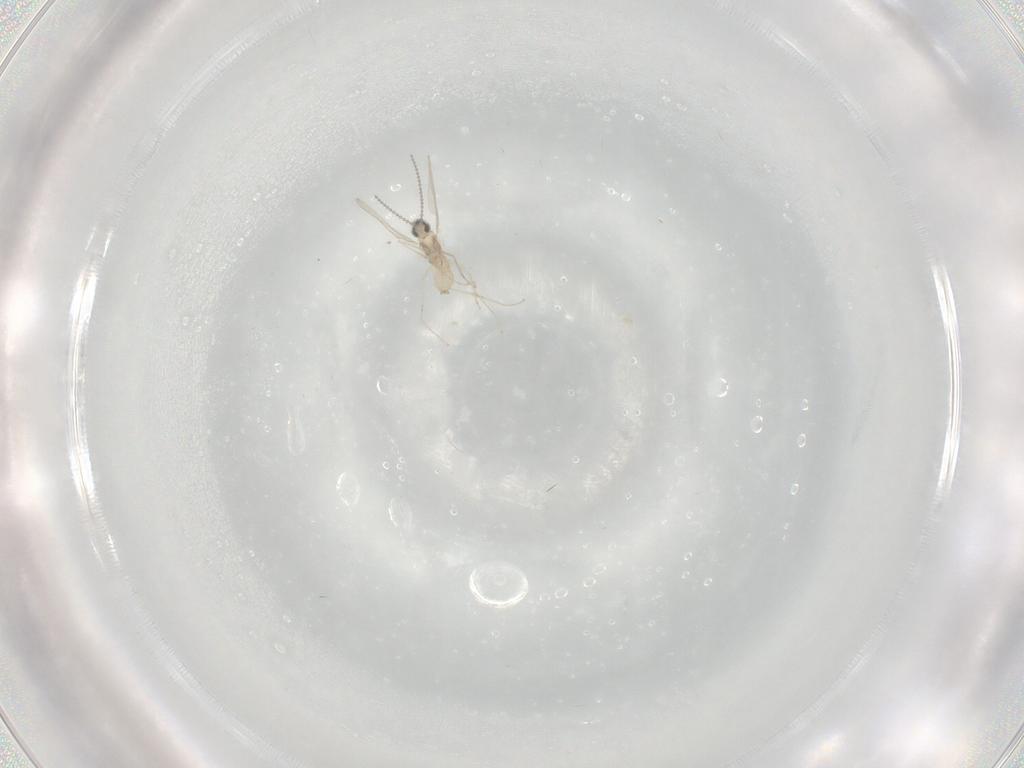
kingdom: Animalia
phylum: Arthropoda
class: Insecta
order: Diptera
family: Cecidomyiidae
